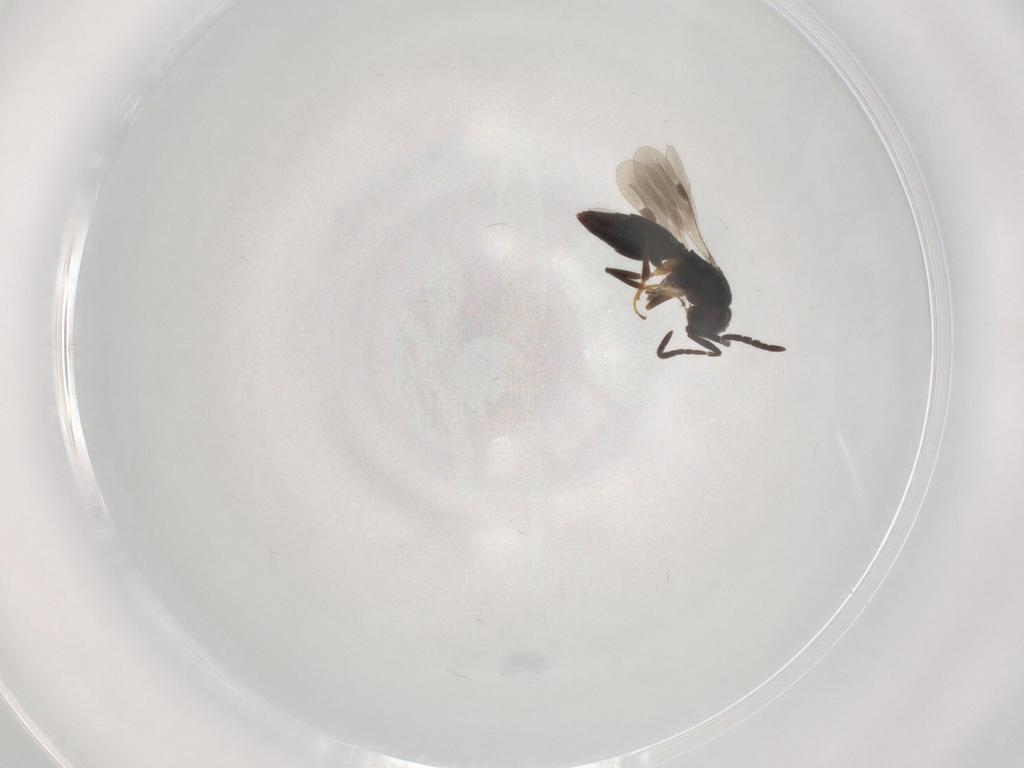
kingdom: Animalia
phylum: Arthropoda
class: Insecta
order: Hymenoptera
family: Megaspilidae
